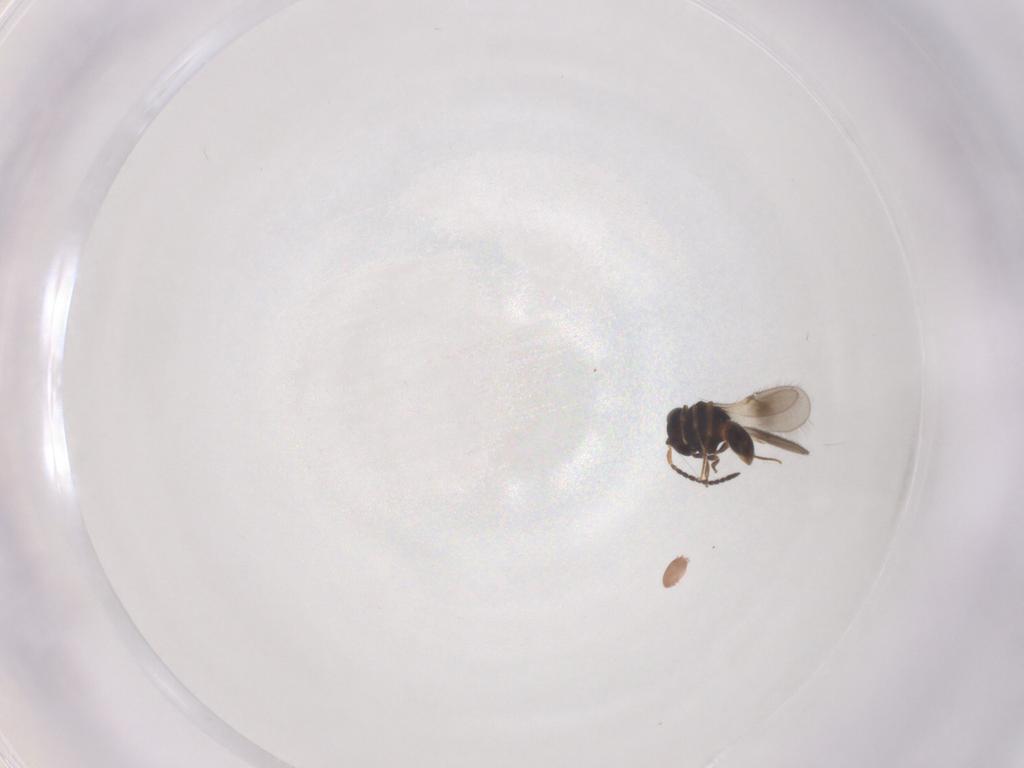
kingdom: Animalia
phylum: Arthropoda
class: Insecta
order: Hymenoptera
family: Scelionidae
